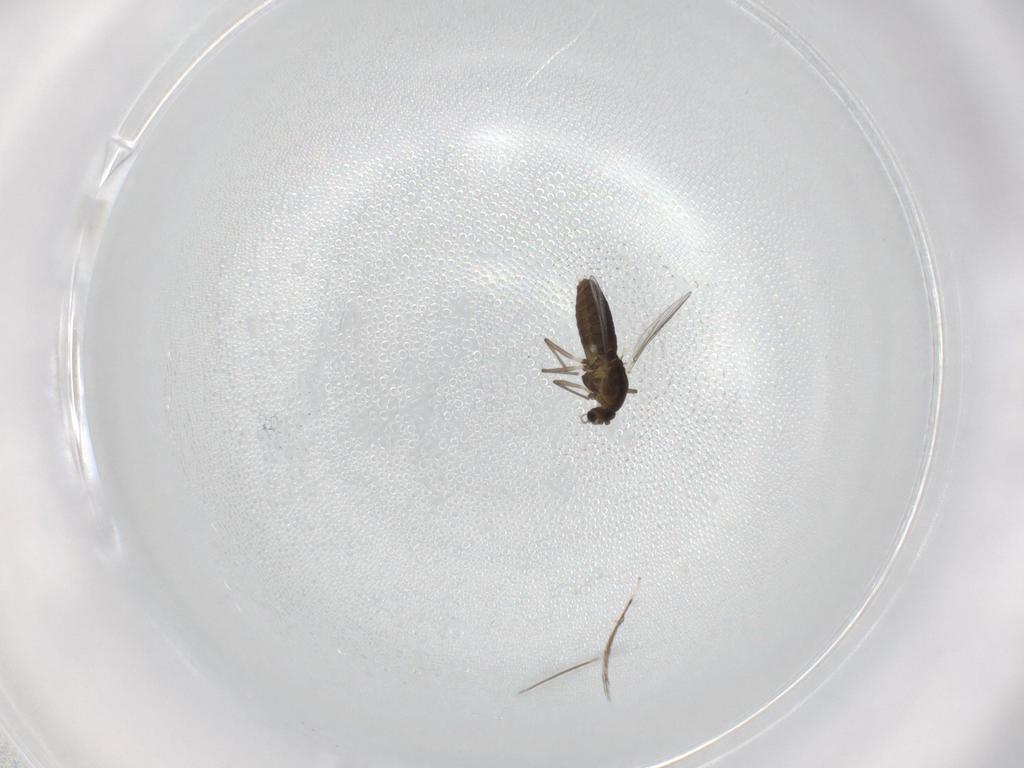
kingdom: Animalia
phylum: Arthropoda
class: Insecta
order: Diptera
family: Chironomidae
